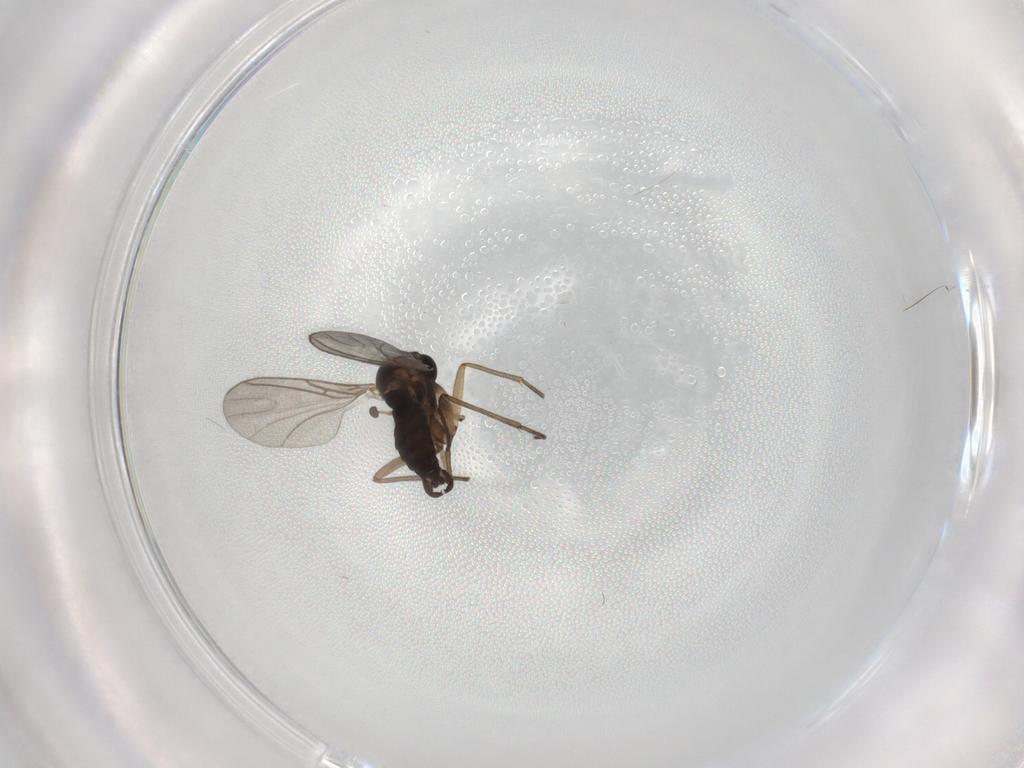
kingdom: Animalia
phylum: Arthropoda
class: Insecta
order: Diptera
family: Sciaridae
